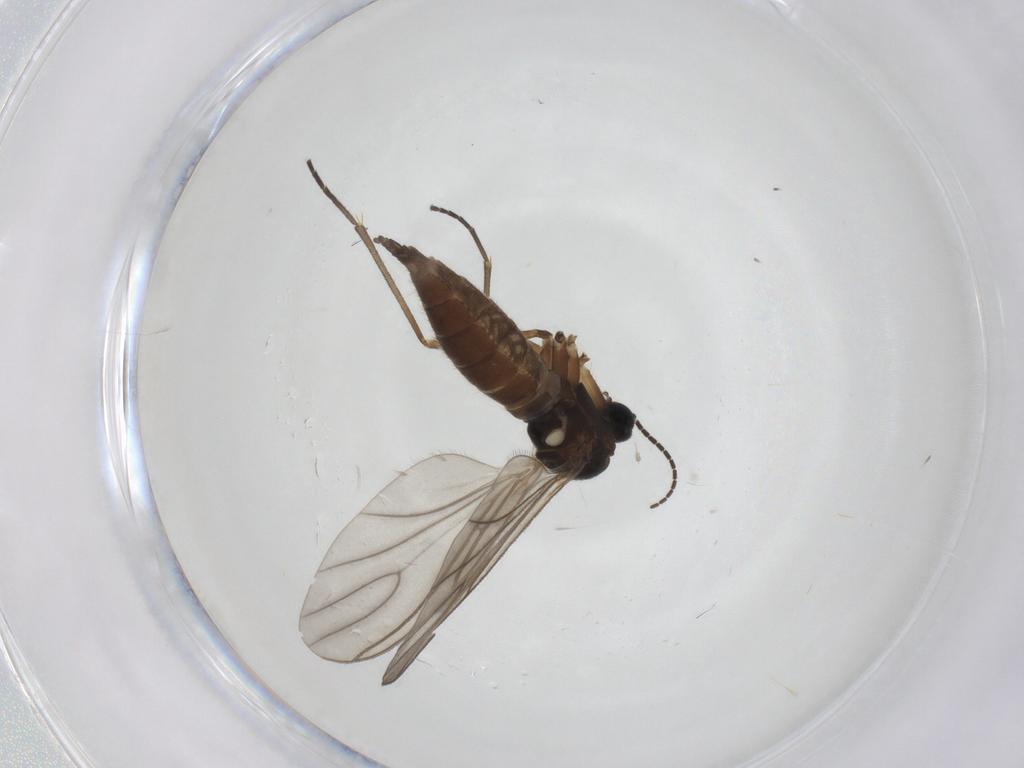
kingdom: Animalia
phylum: Arthropoda
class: Insecta
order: Diptera
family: Sciaridae
